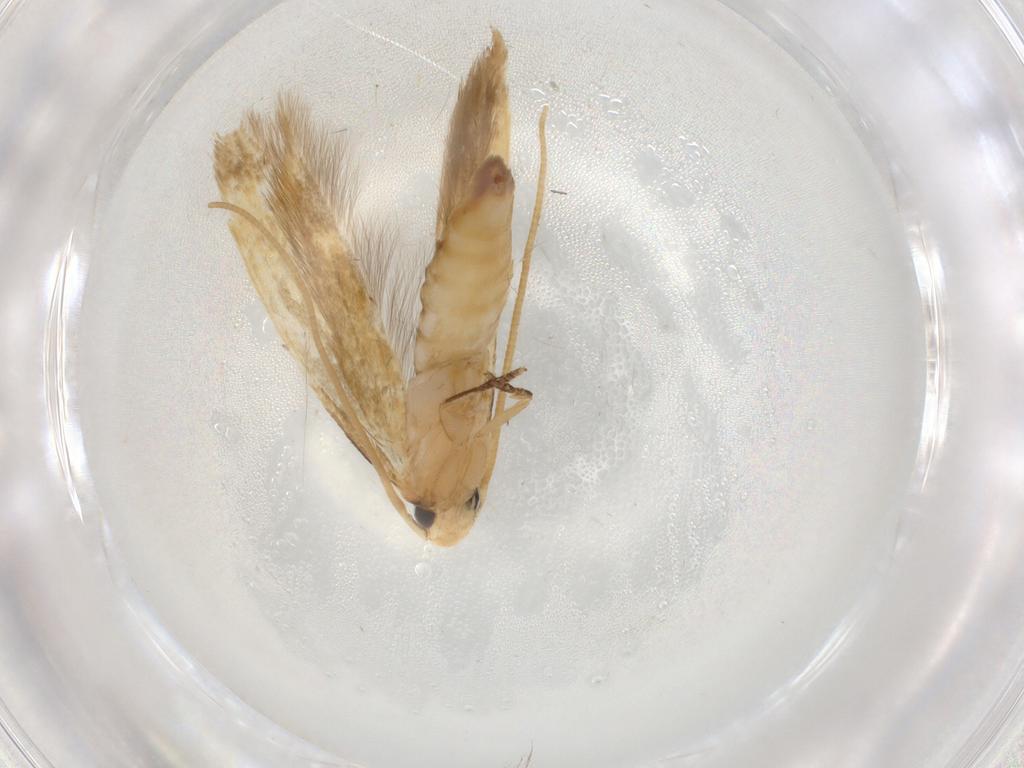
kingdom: Animalia
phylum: Arthropoda
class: Insecta
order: Lepidoptera
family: Tineidae
